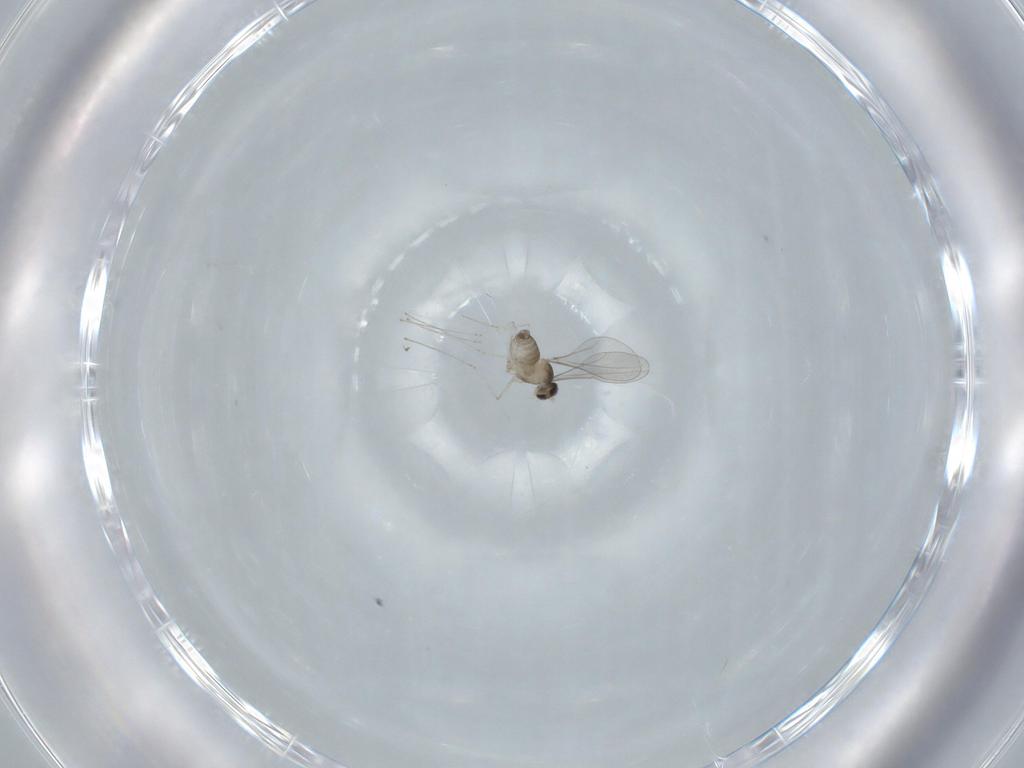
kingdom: Animalia
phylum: Arthropoda
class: Insecta
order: Diptera
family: Cecidomyiidae
